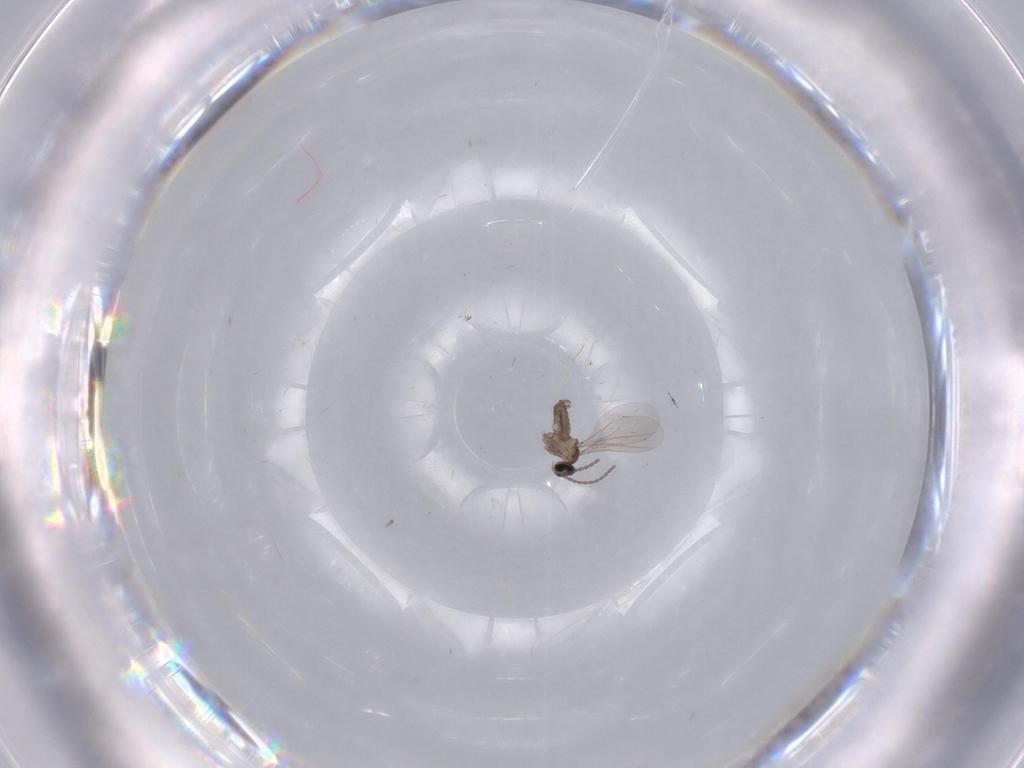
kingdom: Animalia
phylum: Arthropoda
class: Insecta
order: Diptera
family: Cecidomyiidae
